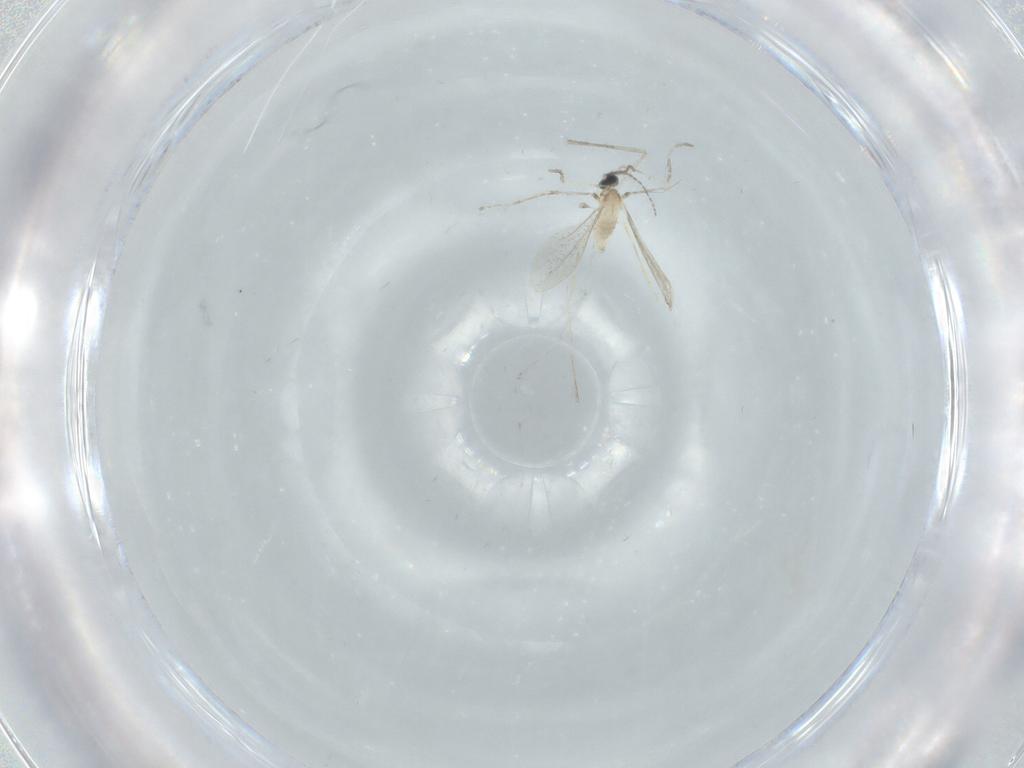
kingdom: Animalia
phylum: Arthropoda
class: Insecta
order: Diptera
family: Cecidomyiidae
